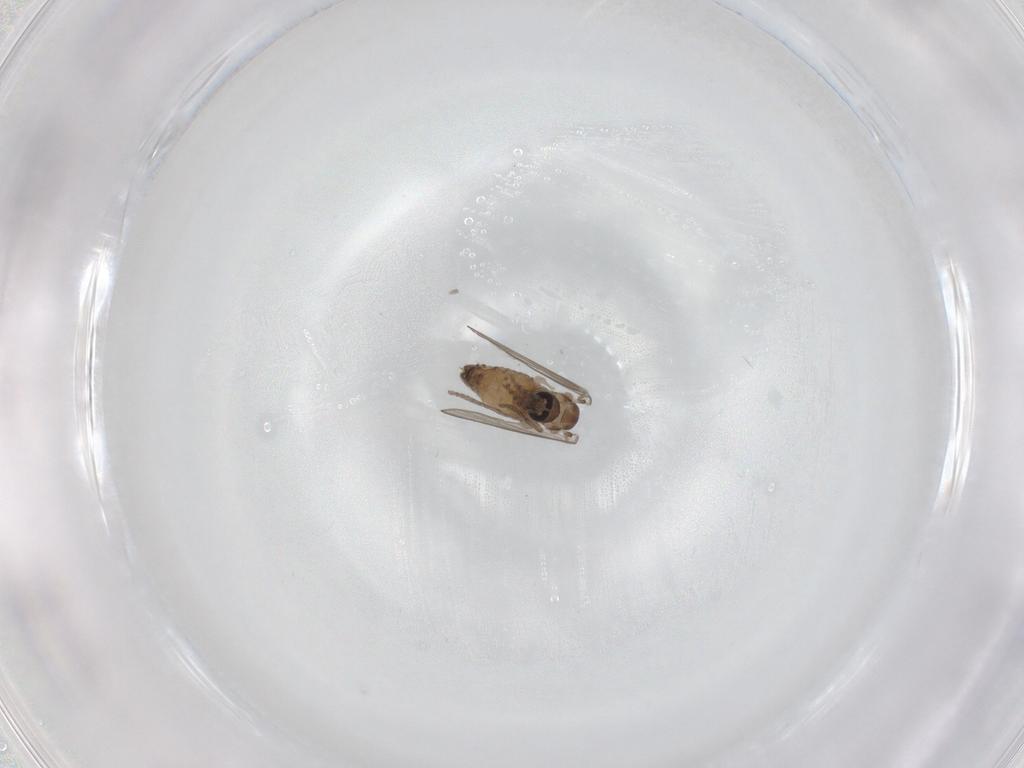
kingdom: Animalia
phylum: Arthropoda
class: Insecta
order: Diptera
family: Psychodidae
